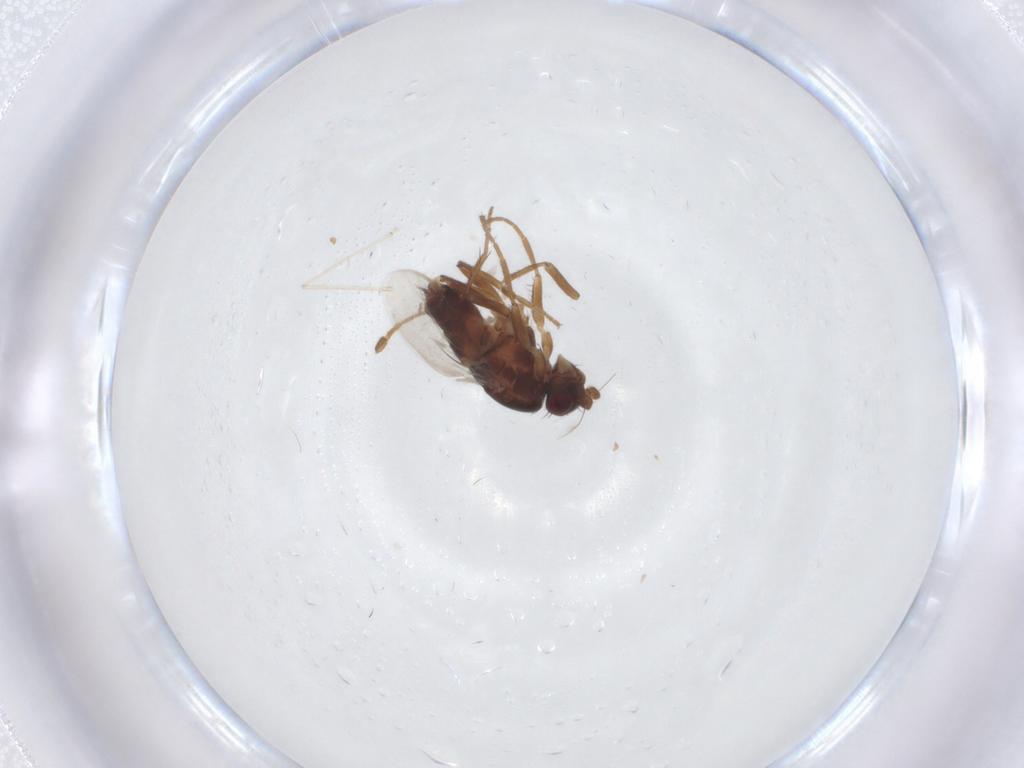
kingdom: Animalia
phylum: Arthropoda
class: Insecta
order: Diptera
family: Sphaeroceridae
